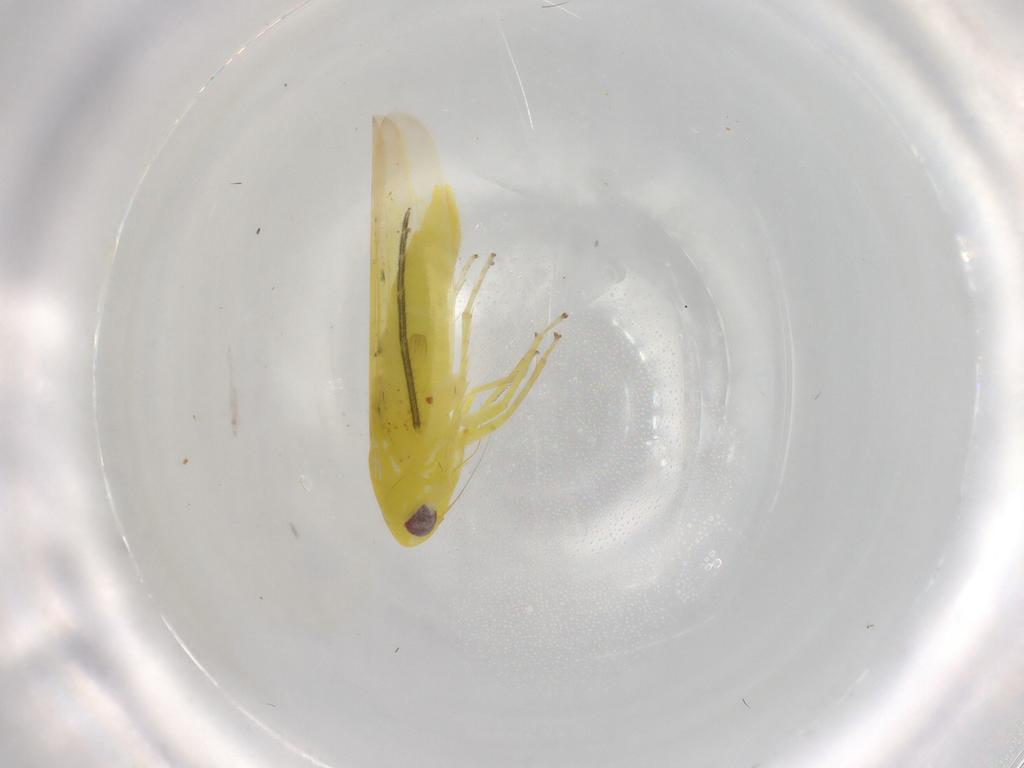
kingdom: Animalia
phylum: Arthropoda
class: Insecta
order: Hemiptera
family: Cicadellidae
